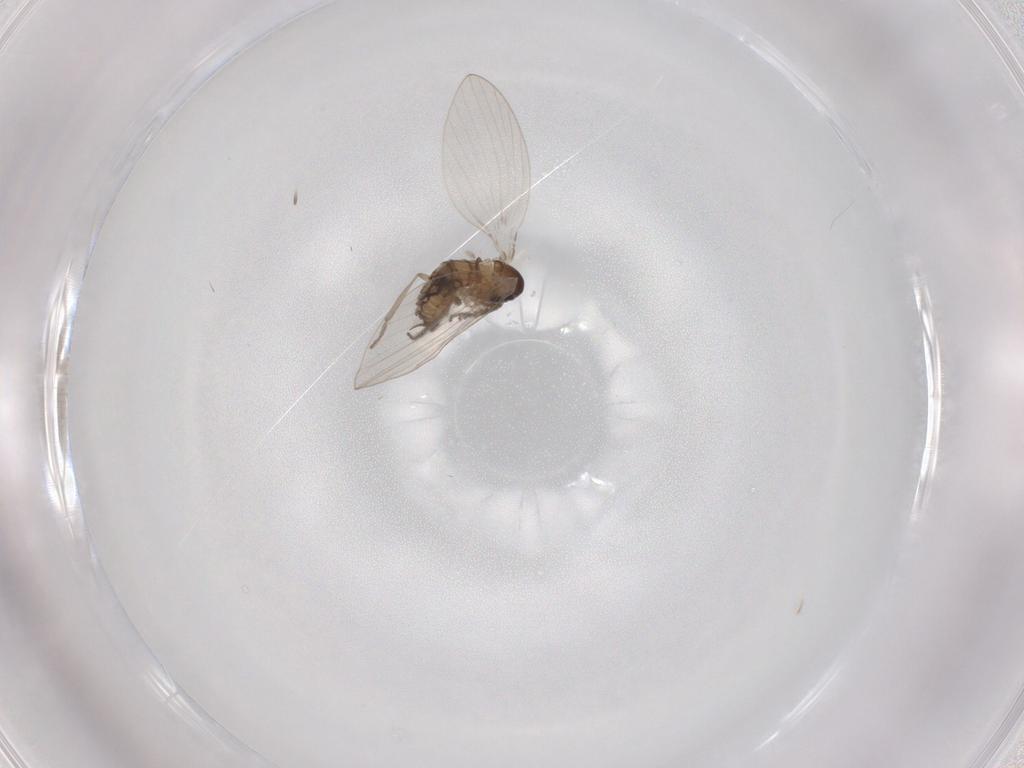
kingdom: Animalia
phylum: Arthropoda
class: Insecta
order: Diptera
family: Psychodidae
